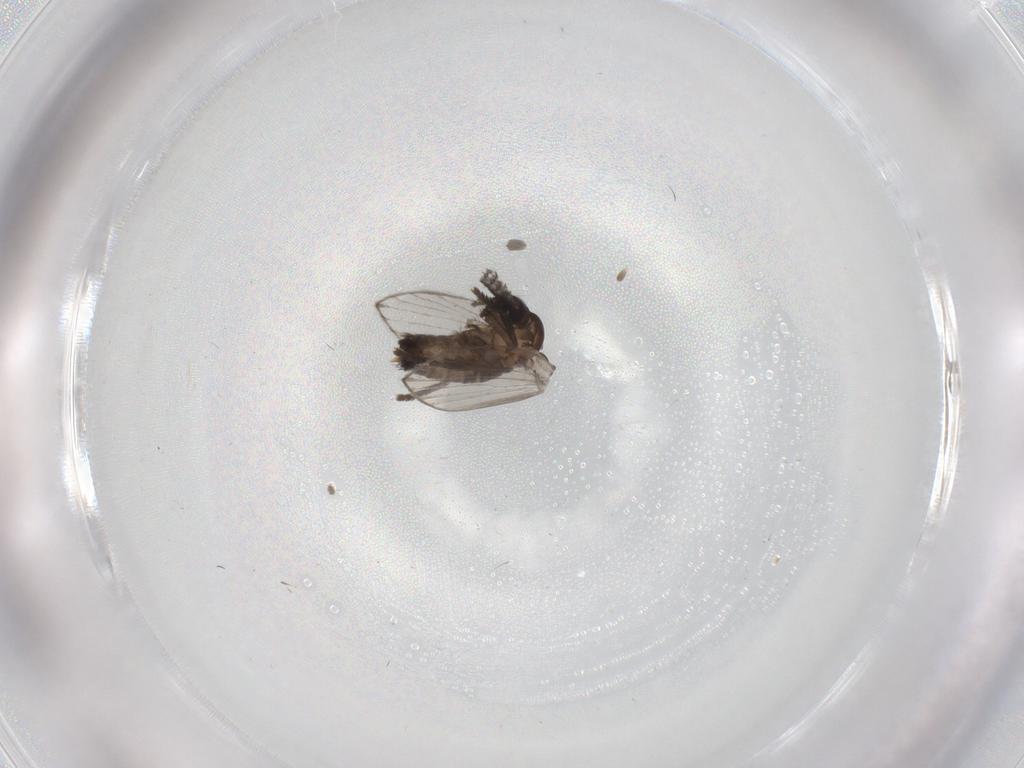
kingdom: Animalia
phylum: Arthropoda
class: Insecta
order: Diptera
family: Psychodidae
